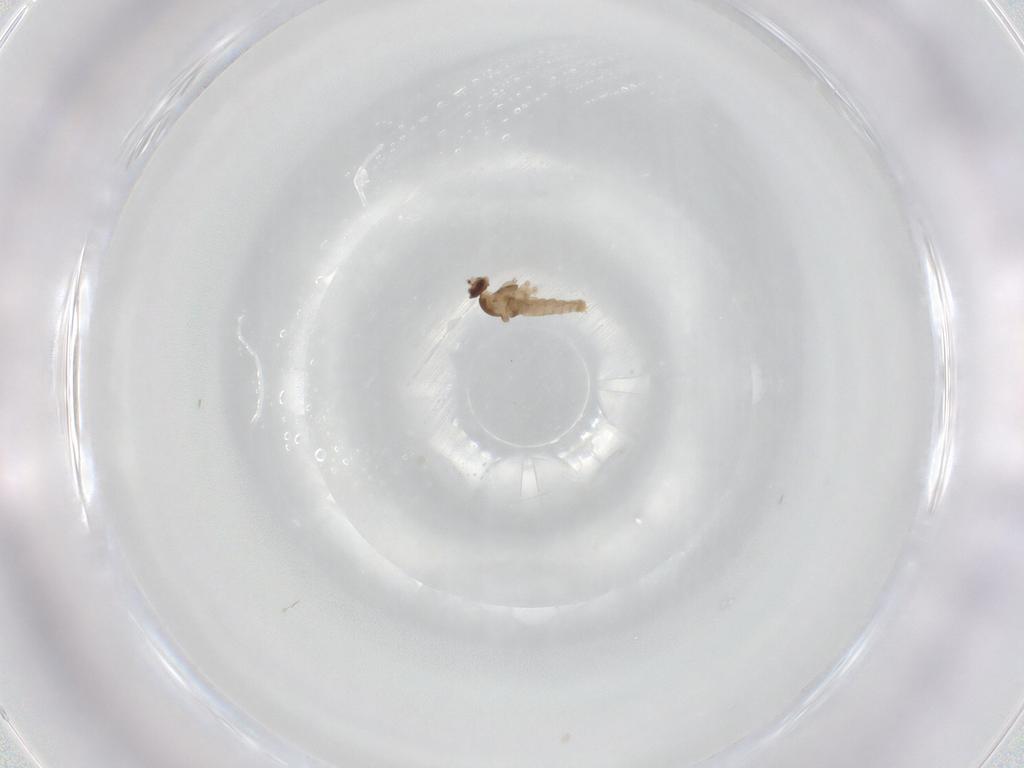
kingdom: Animalia
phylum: Arthropoda
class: Insecta
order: Diptera
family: Cecidomyiidae
